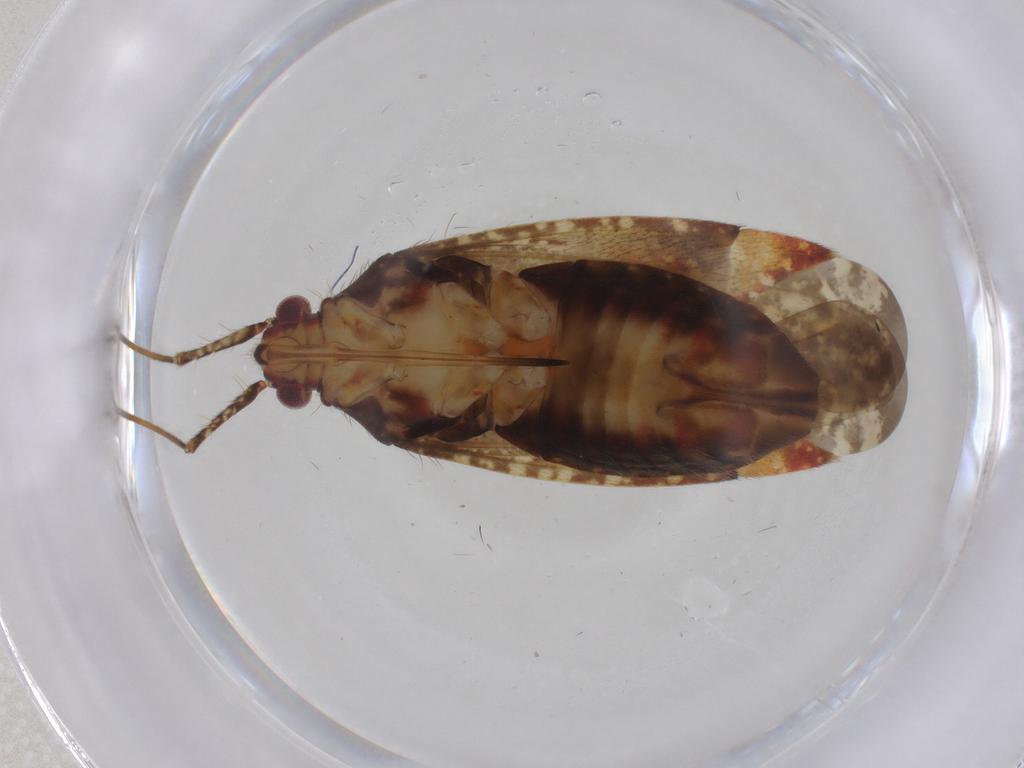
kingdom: Animalia
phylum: Arthropoda
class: Insecta
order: Hemiptera
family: Miridae
